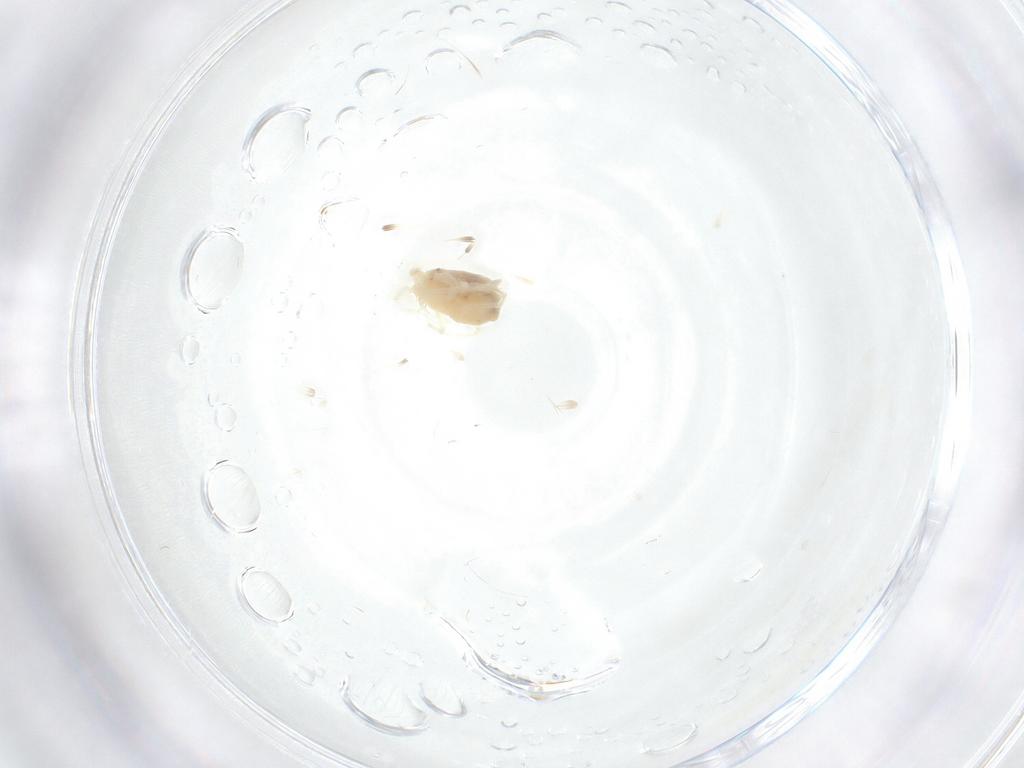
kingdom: Animalia
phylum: Arthropoda
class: Arachnida
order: Trombidiformes
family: Anystidae
